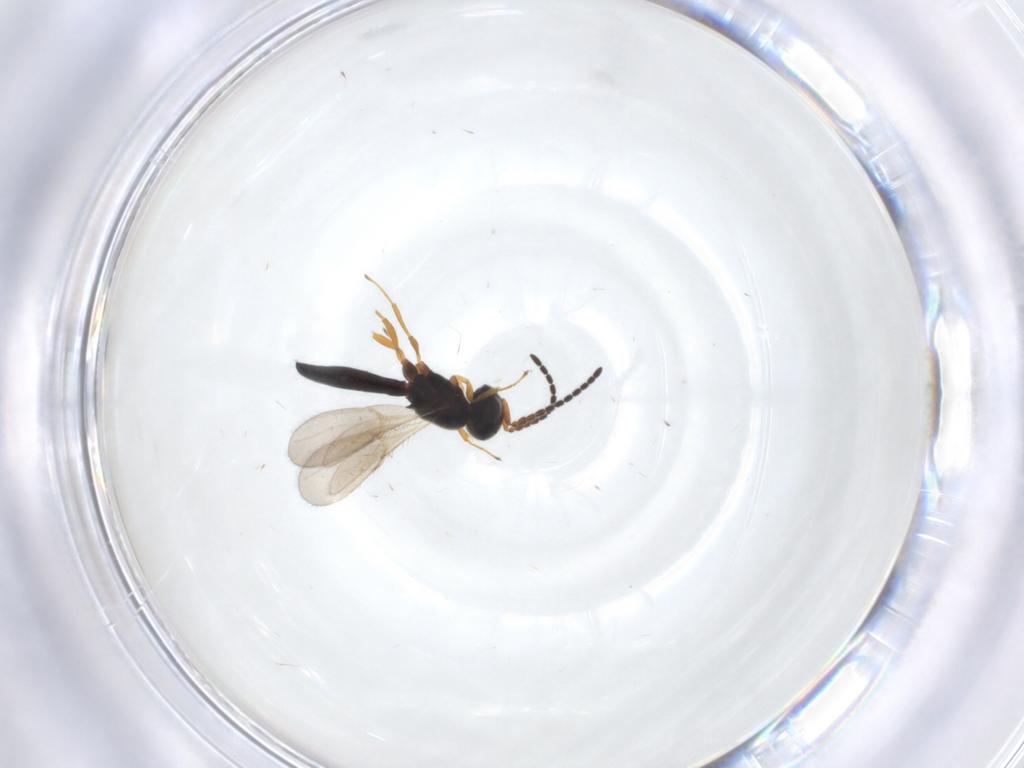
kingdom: Animalia
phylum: Arthropoda
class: Insecta
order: Hymenoptera
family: Scelionidae
